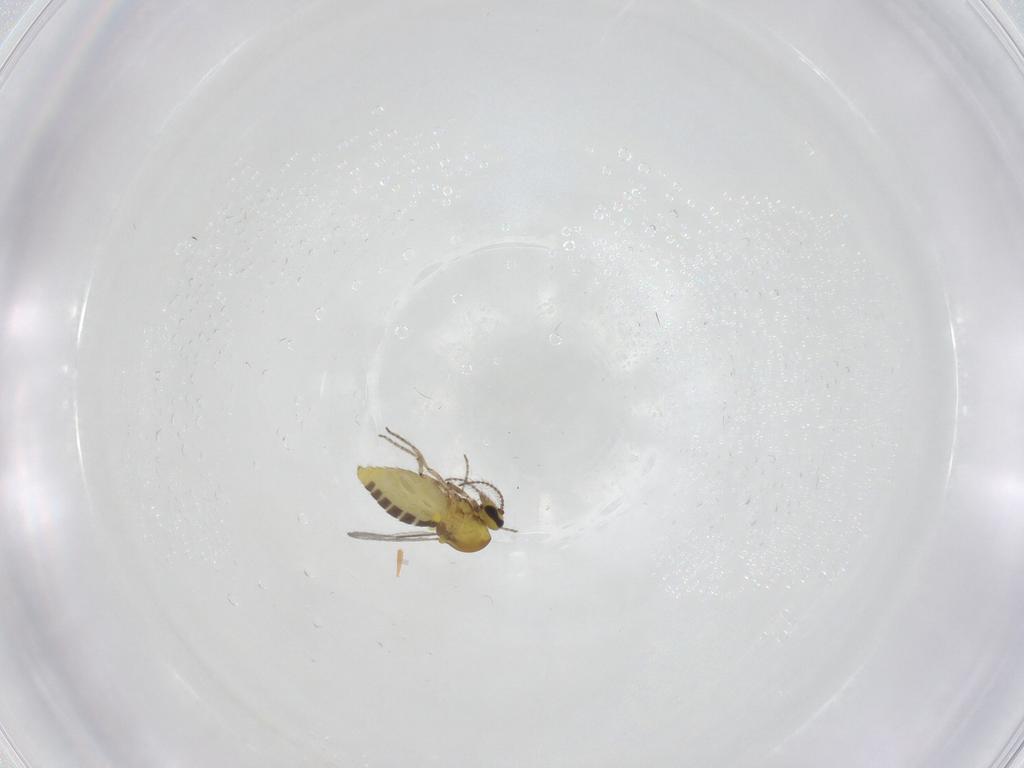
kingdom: Animalia
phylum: Arthropoda
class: Insecta
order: Diptera
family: Ceratopogonidae
